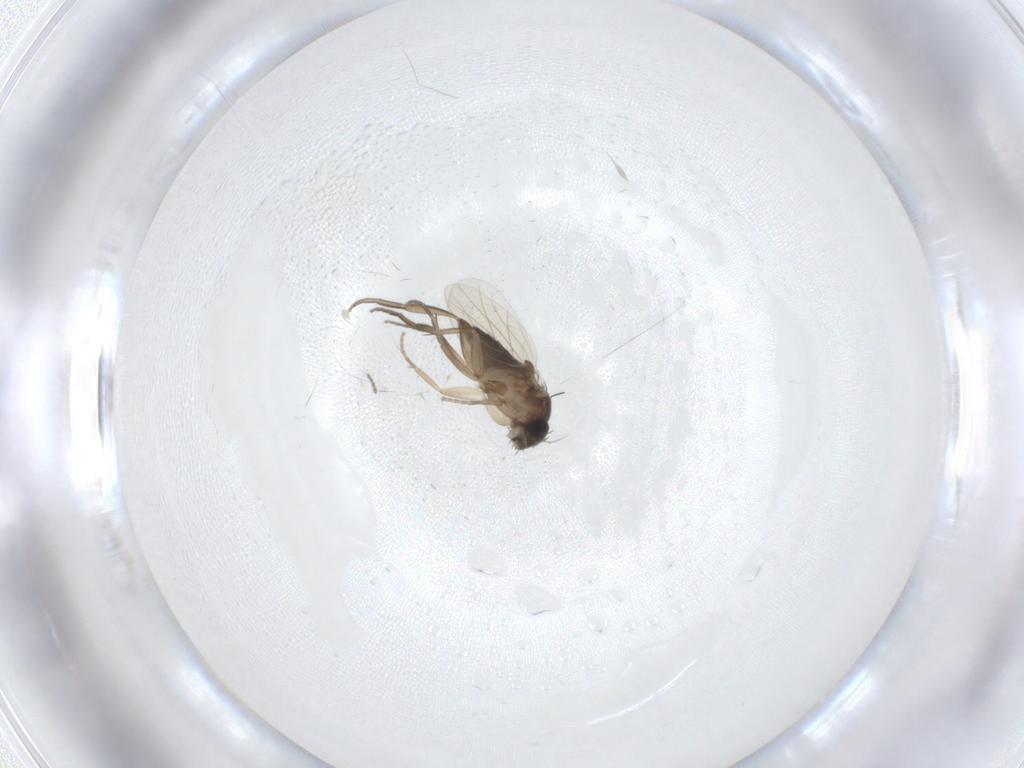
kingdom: Animalia
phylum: Arthropoda
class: Insecta
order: Diptera
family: Phoridae
